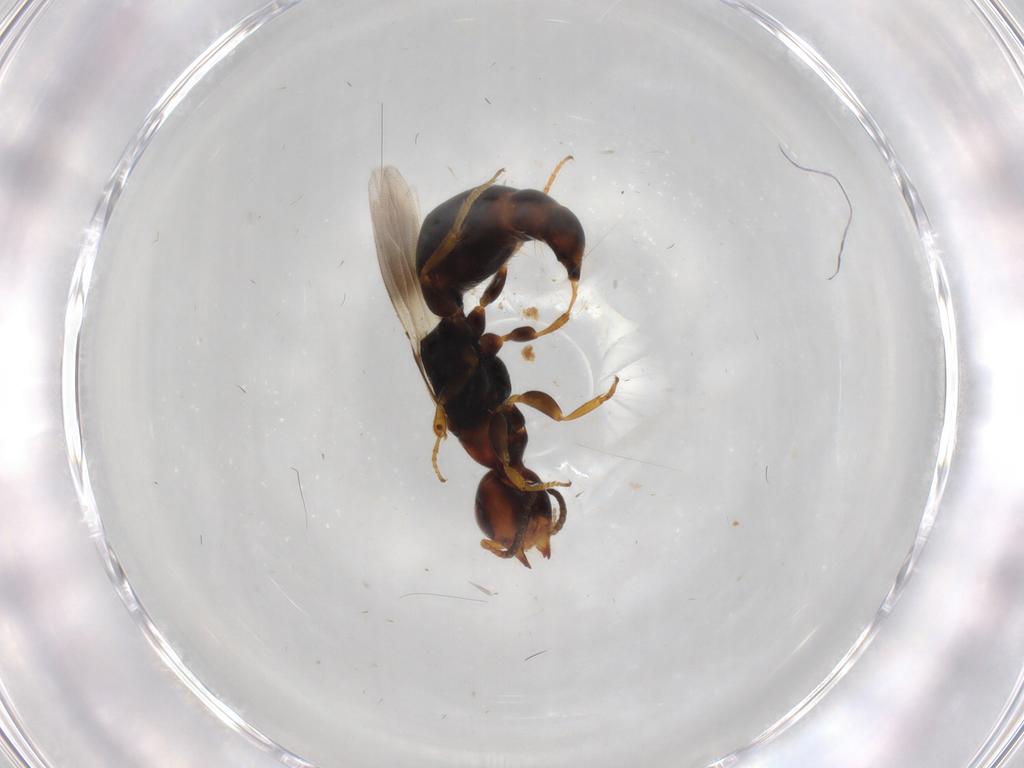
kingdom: Animalia
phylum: Arthropoda
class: Insecta
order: Hymenoptera
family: Bethylidae
